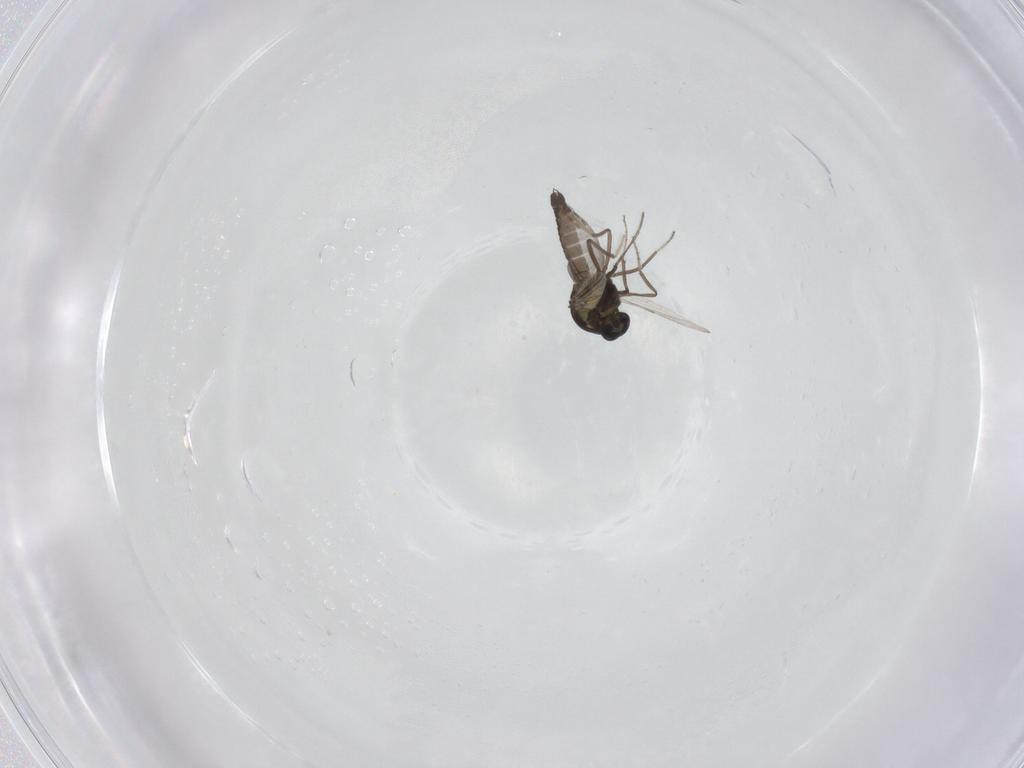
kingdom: Animalia
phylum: Arthropoda
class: Insecta
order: Diptera
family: Ceratopogonidae
